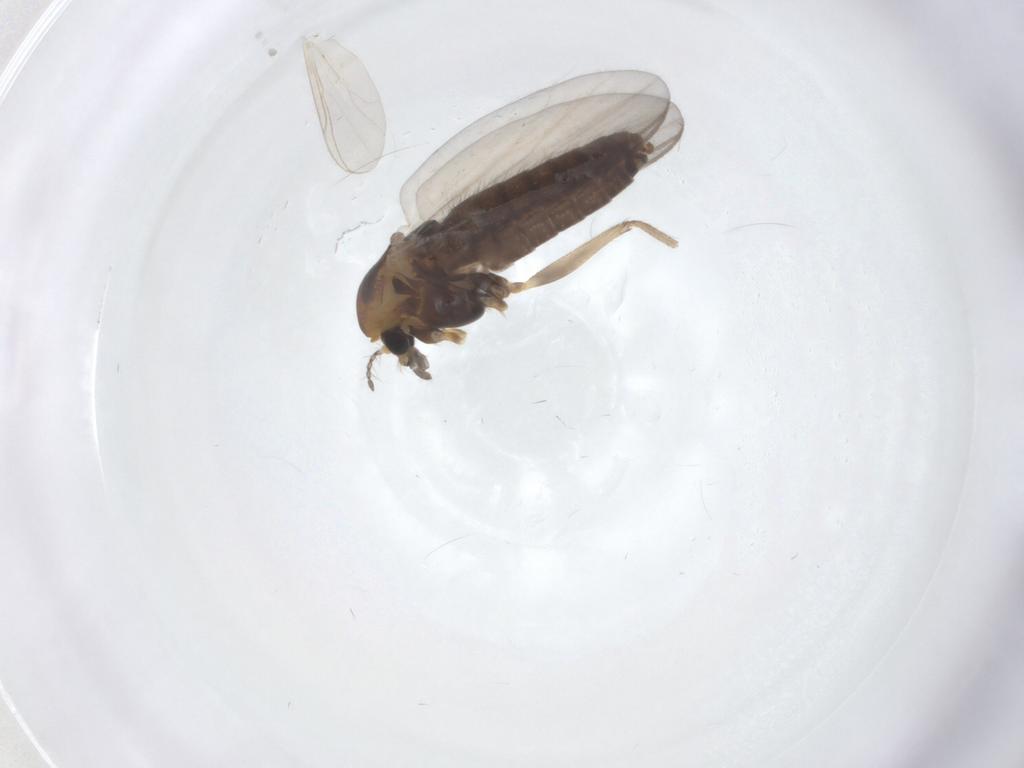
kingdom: Animalia
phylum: Arthropoda
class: Insecta
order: Diptera
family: Chironomidae
